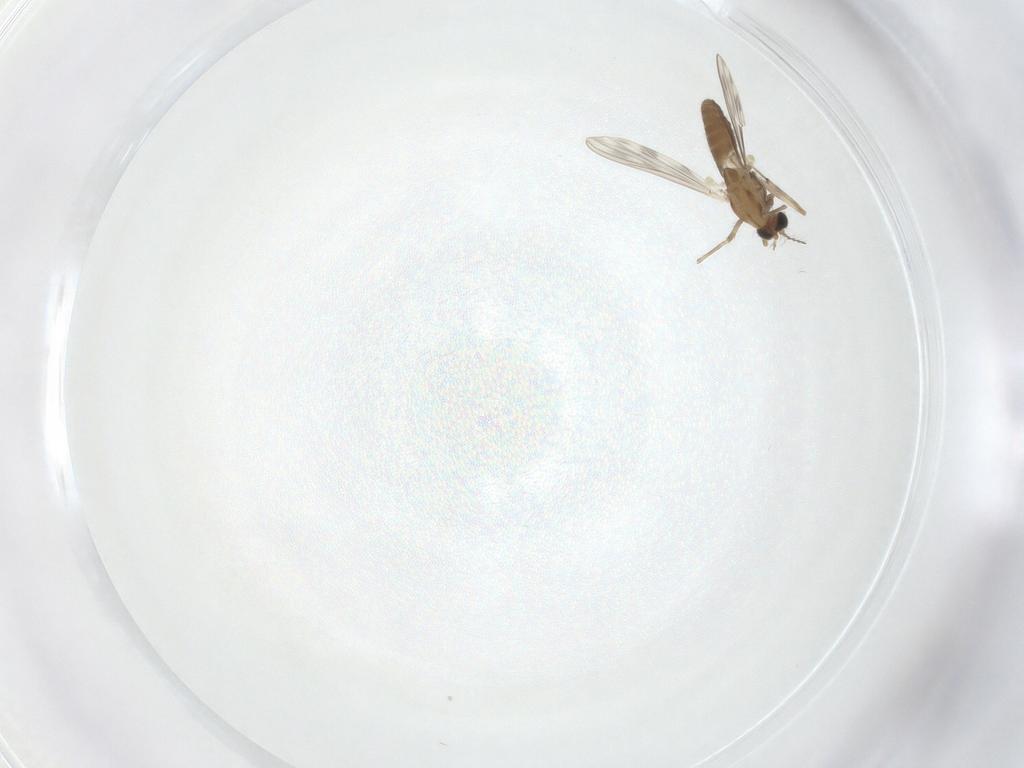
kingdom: Animalia
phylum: Arthropoda
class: Insecta
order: Diptera
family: Chironomidae
